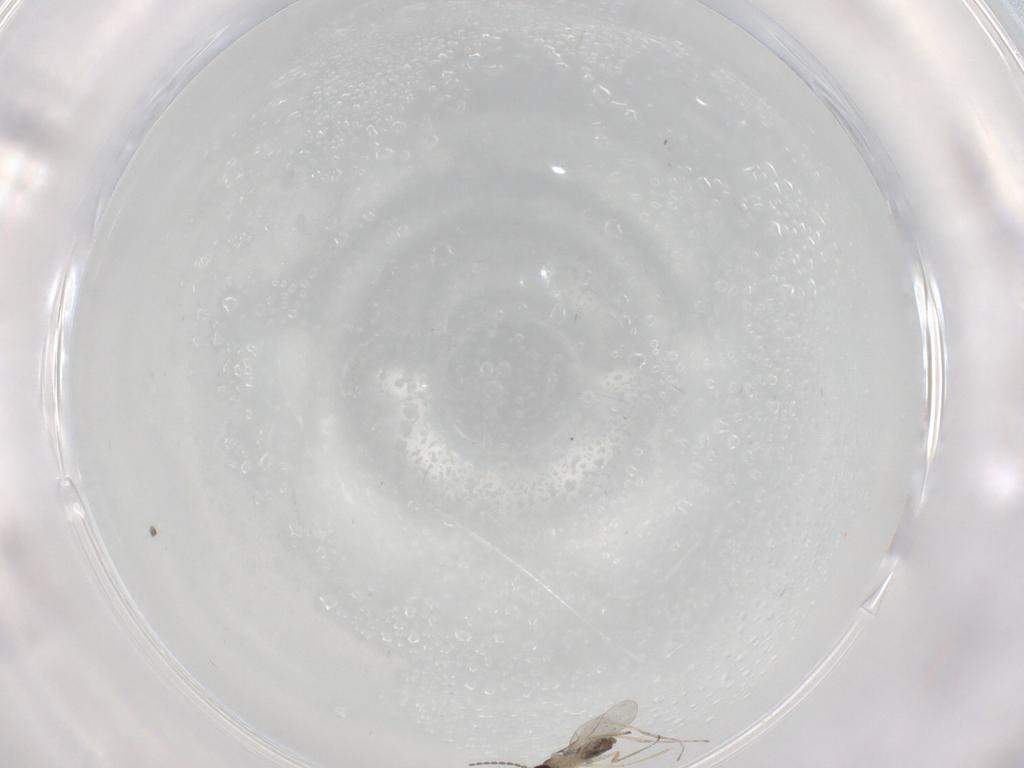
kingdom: Animalia
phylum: Arthropoda
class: Insecta
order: Diptera
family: Cecidomyiidae
